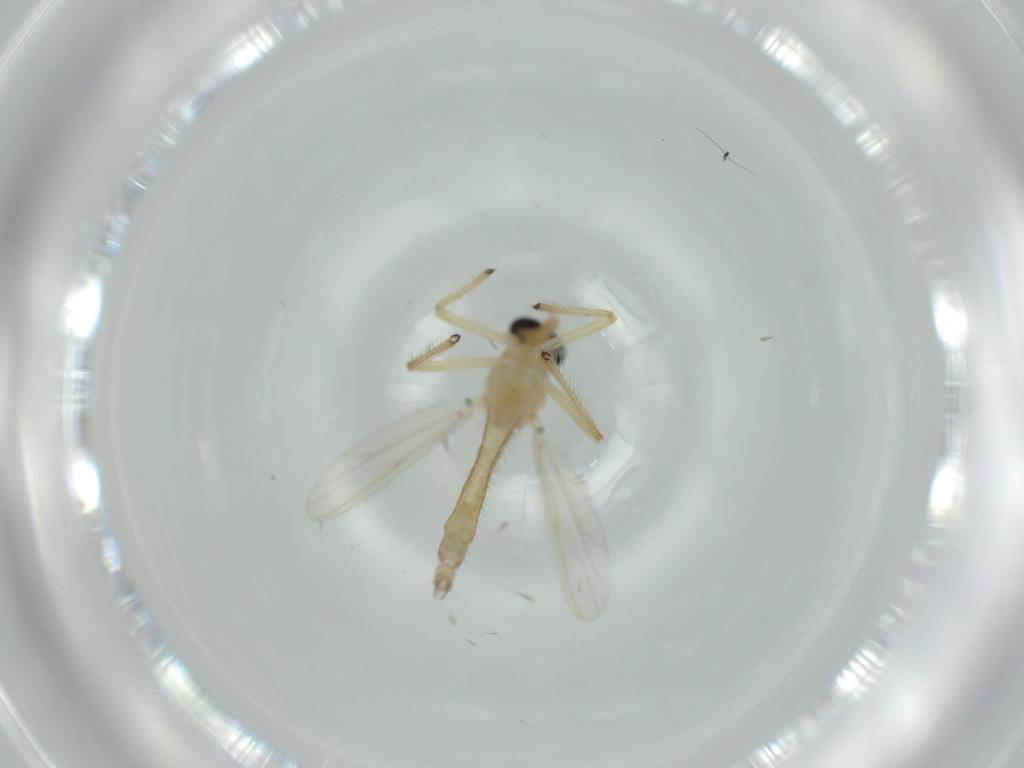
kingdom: Animalia
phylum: Arthropoda
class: Insecta
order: Diptera
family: Chironomidae
